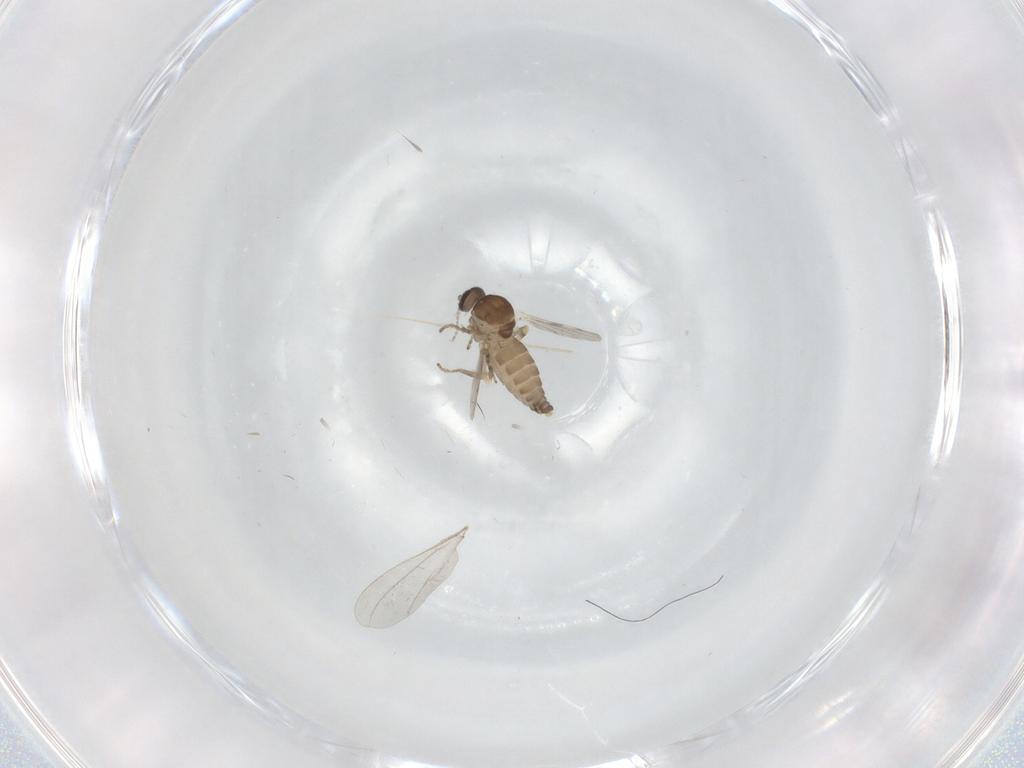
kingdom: Animalia
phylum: Arthropoda
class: Insecta
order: Diptera
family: Ceratopogonidae
